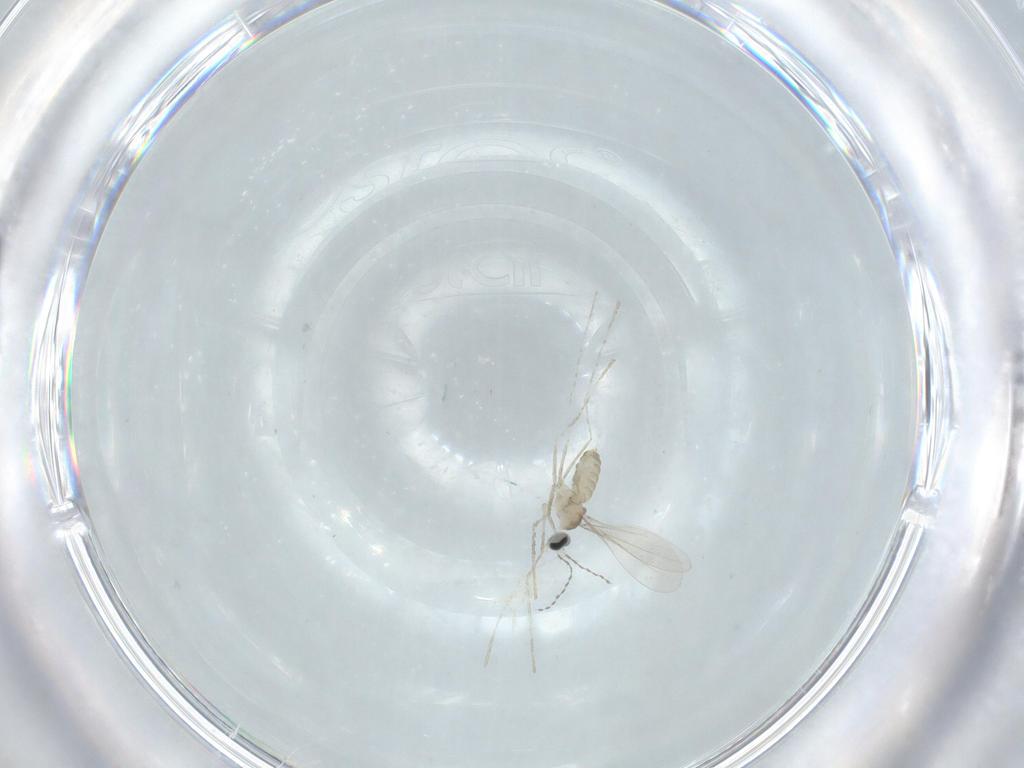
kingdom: Animalia
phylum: Arthropoda
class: Insecta
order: Diptera
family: Cecidomyiidae
